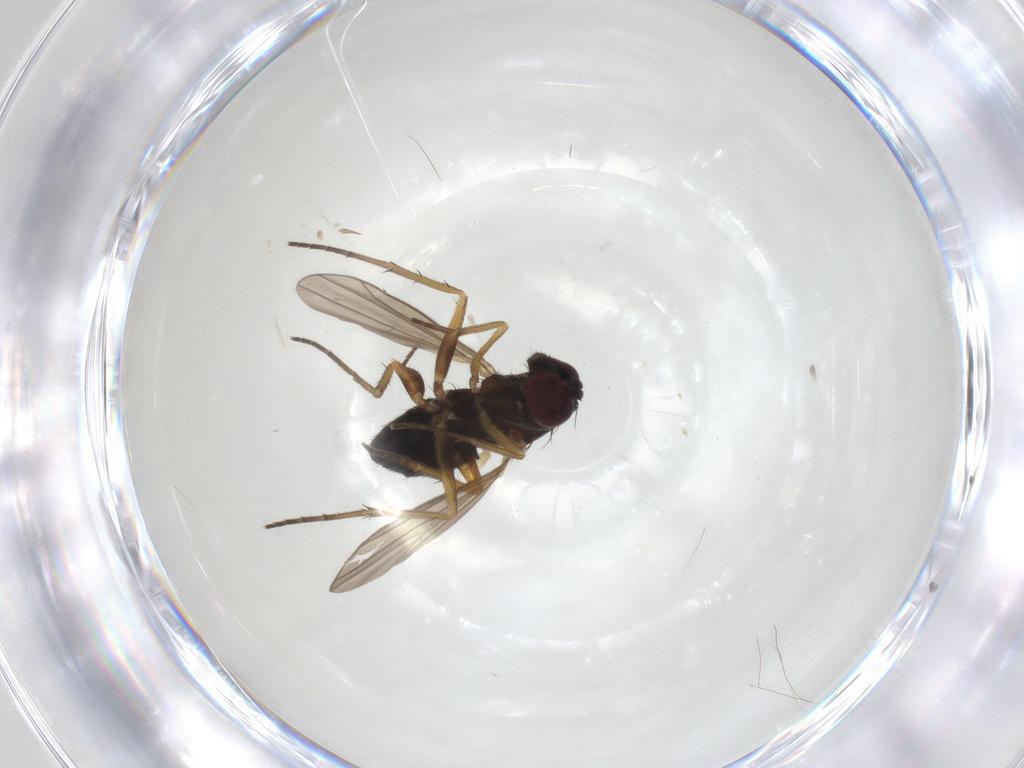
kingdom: Animalia
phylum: Arthropoda
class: Insecta
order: Diptera
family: Dolichopodidae
